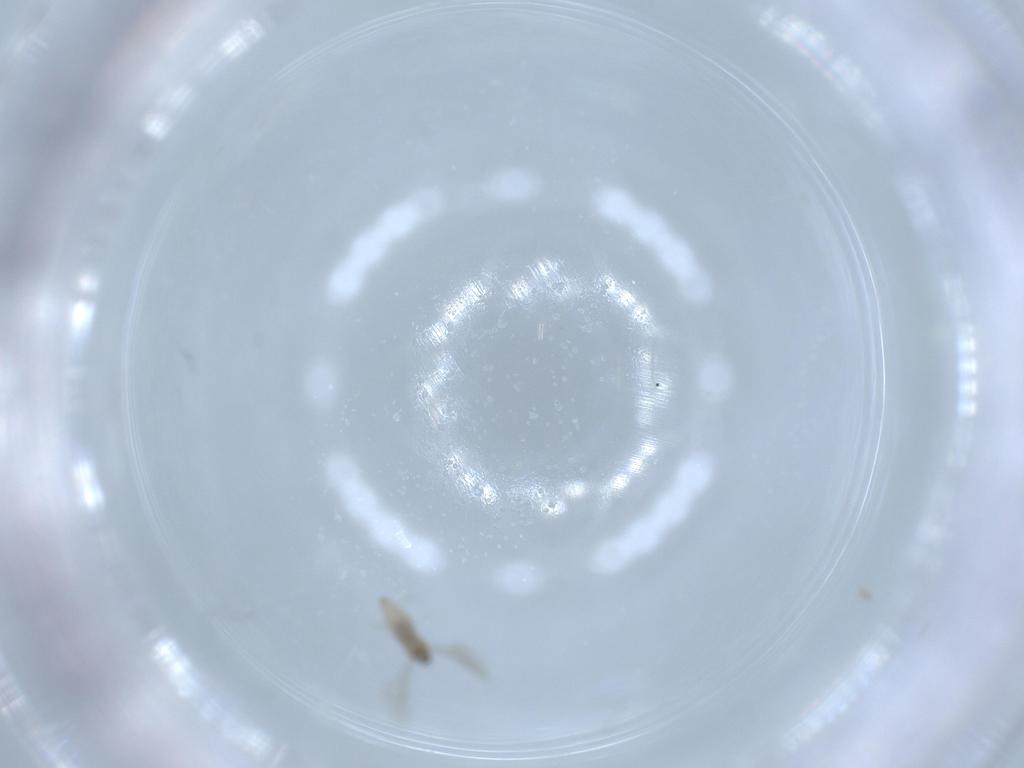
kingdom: Animalia
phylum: Arthropoda
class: Insecta
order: Diptera
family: Cecidomyiidae
